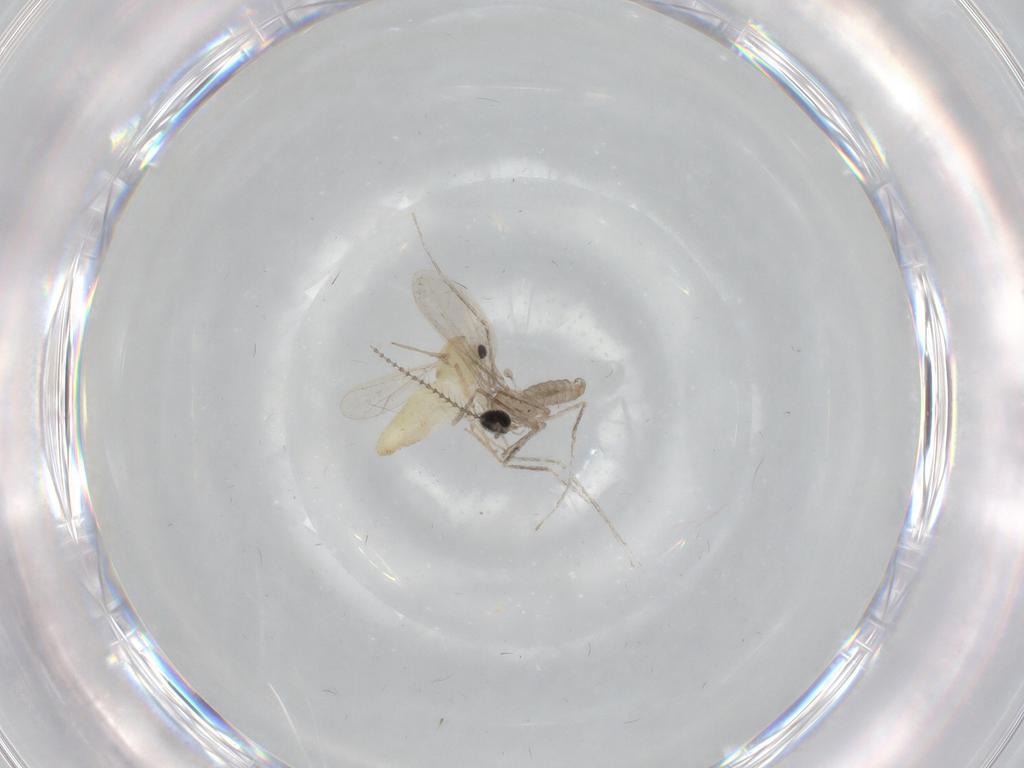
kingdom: Animalia
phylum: Arthropoda
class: Insecta
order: Diptera
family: Chironomidae
